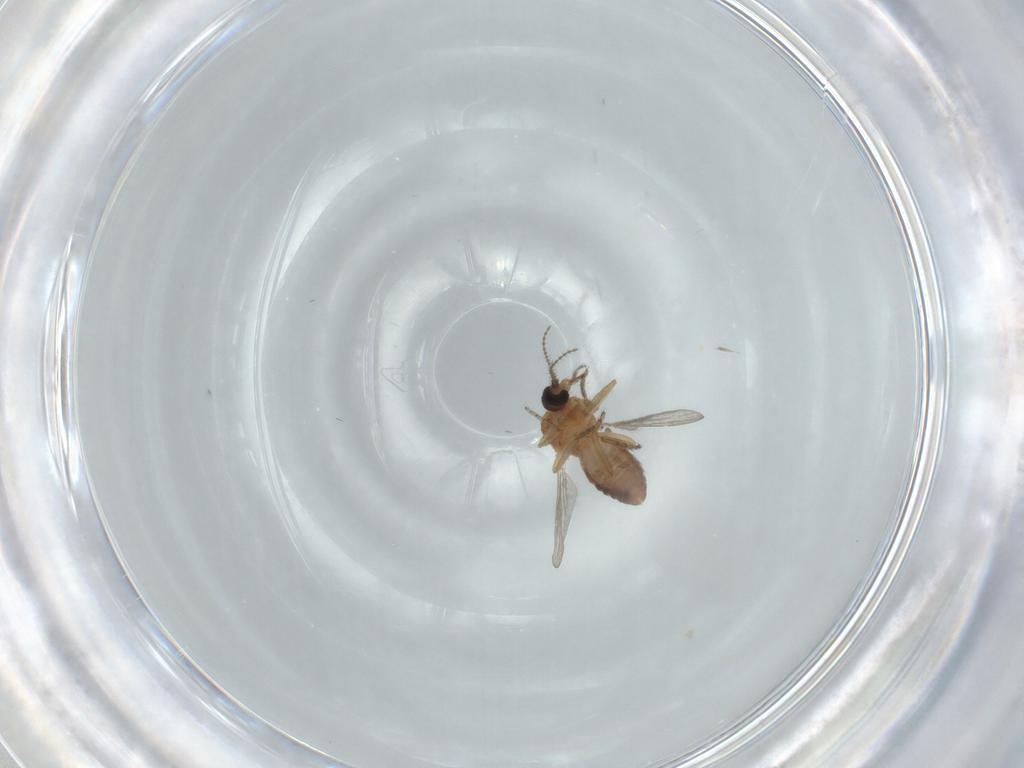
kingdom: Animalia
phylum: Arthropoda
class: Insecta
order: Diptera
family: Ceratopogonidae
